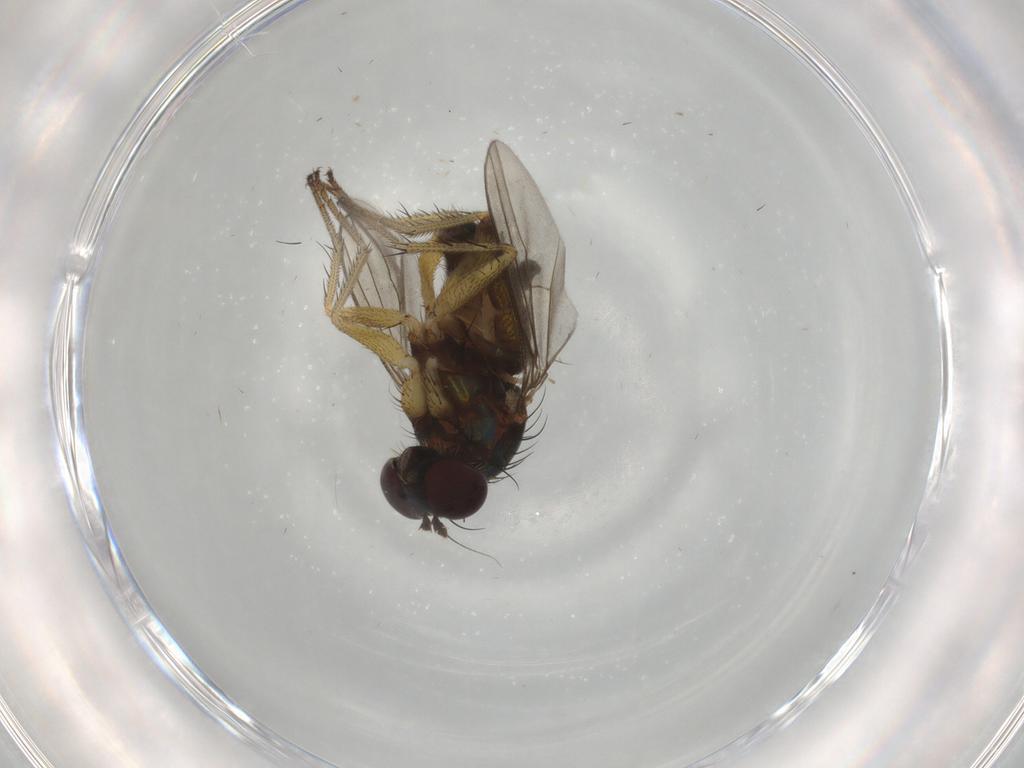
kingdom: Animalia
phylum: Arthropoda
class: Insecta
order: Diptera
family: Dolichopodidae
